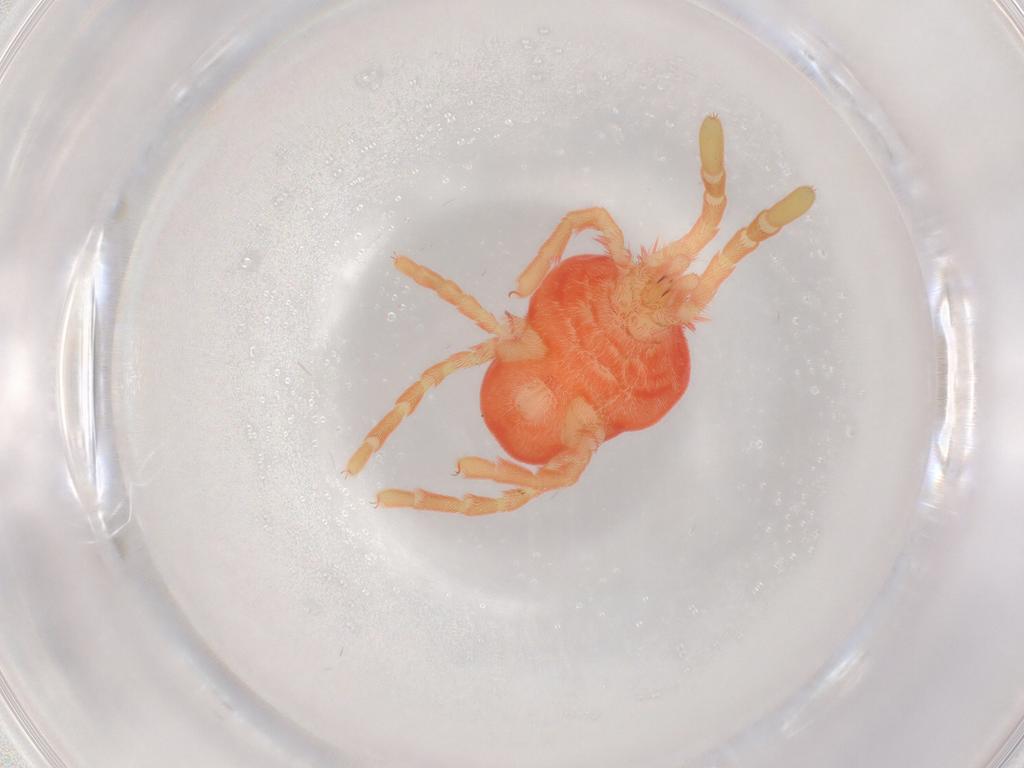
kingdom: Animalia
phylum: Arthropoda
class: Arachnida
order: Trombidiformes
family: Trombidiidae
